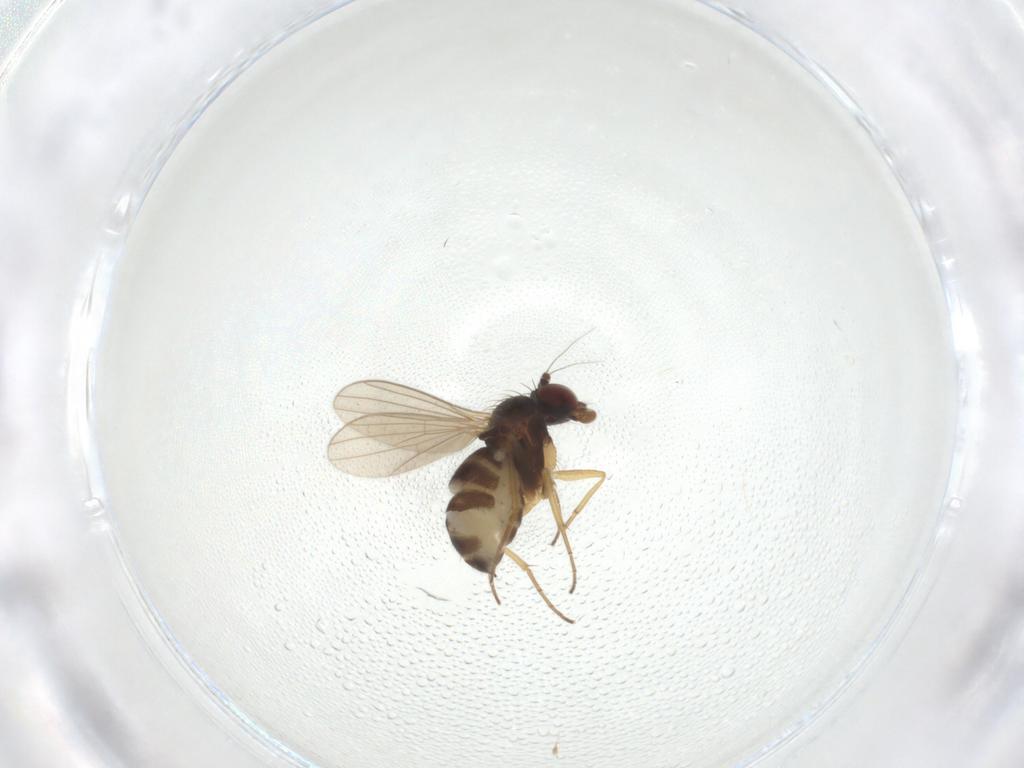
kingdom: Animalia
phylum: Arthropoda
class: Insecta
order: Diptera
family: Dolichopodidae
